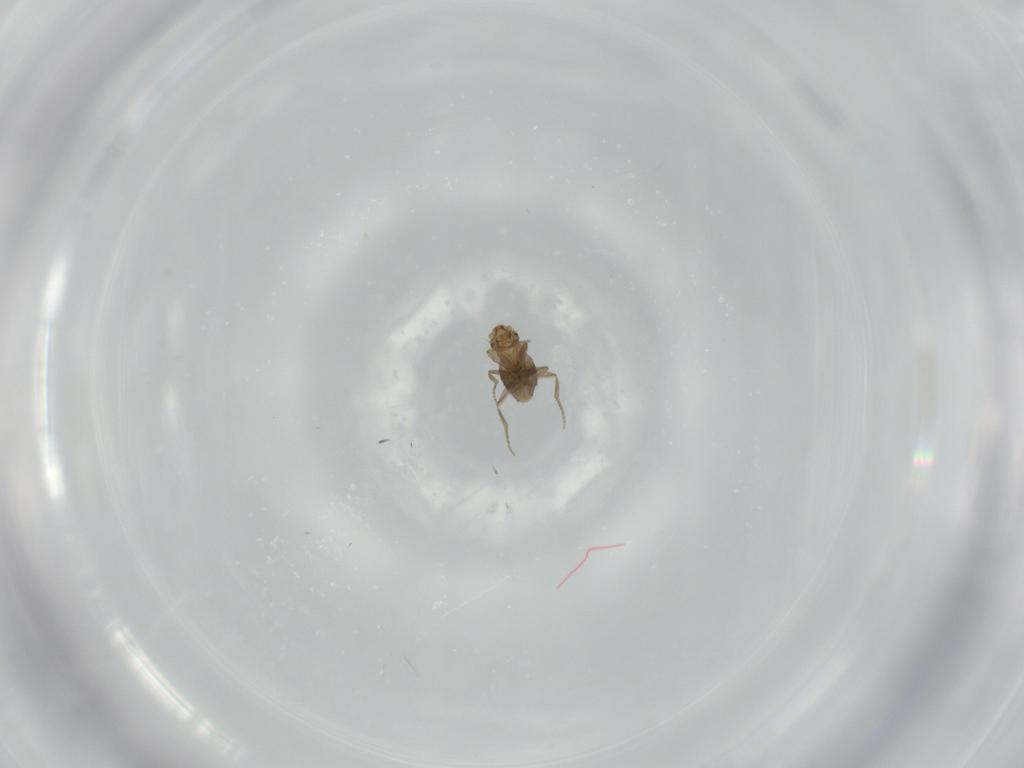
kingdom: Animalia
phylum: Arthropoda
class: Insecta
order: Diptera
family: Phoridae
